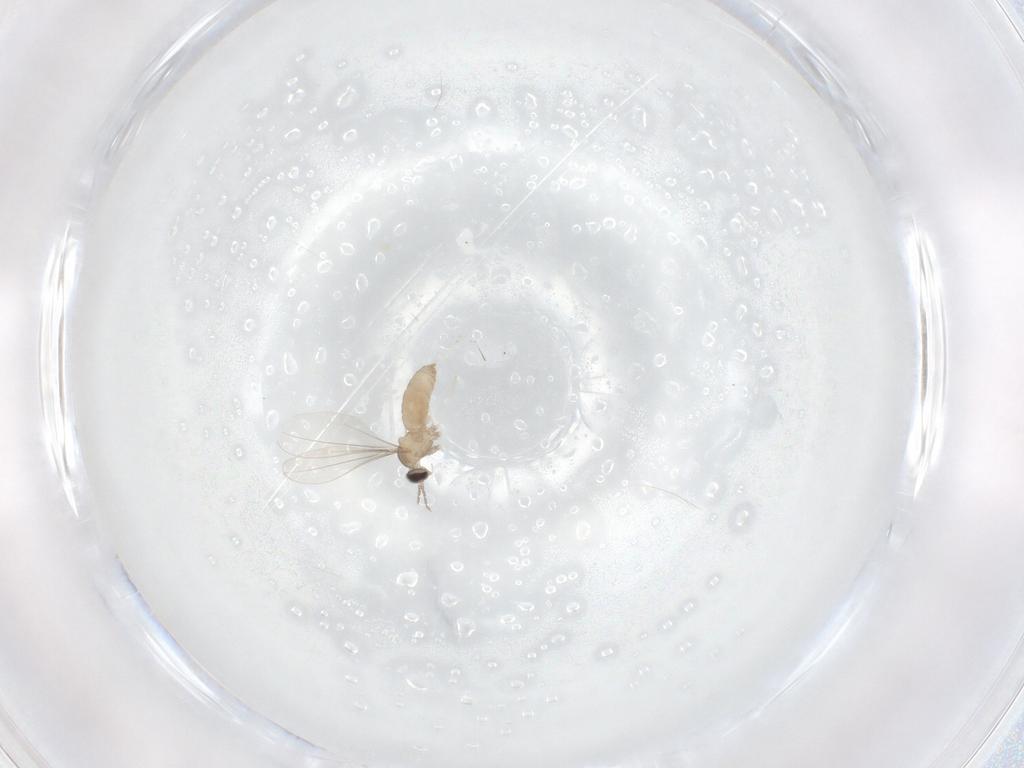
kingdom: Animalia
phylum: Arthropoda
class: Insecta
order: Diptera
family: Cecidomyiidae
